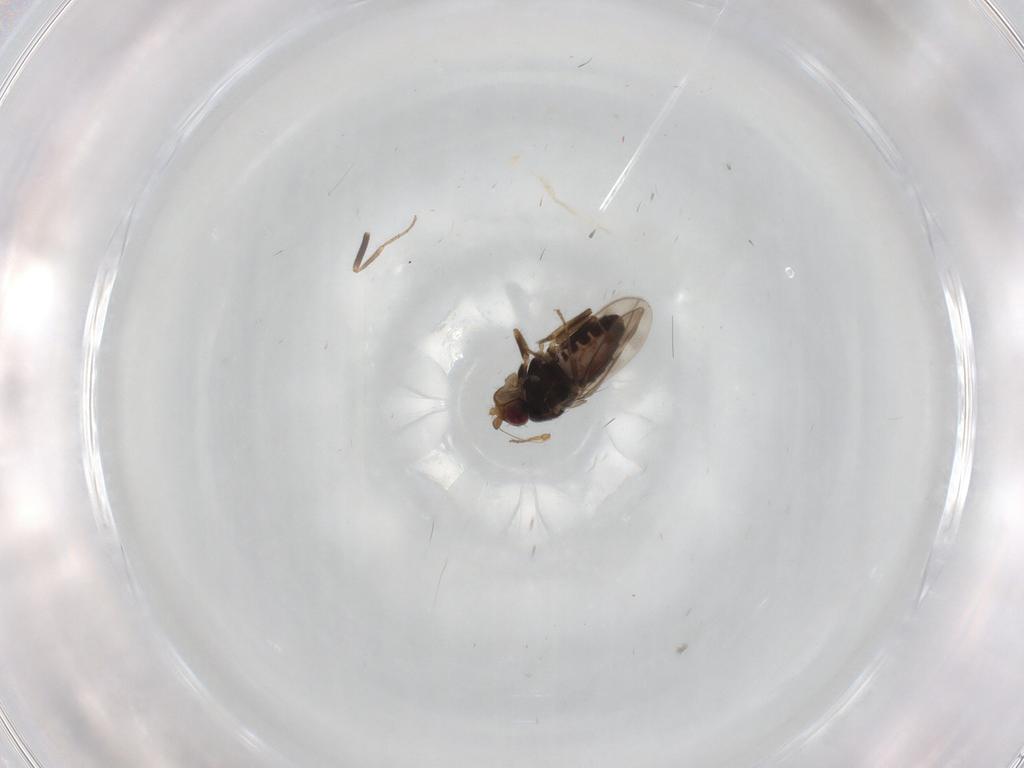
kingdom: Animalia
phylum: Arthropoda
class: Insecta
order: Diptera
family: Sphaeroceridae
